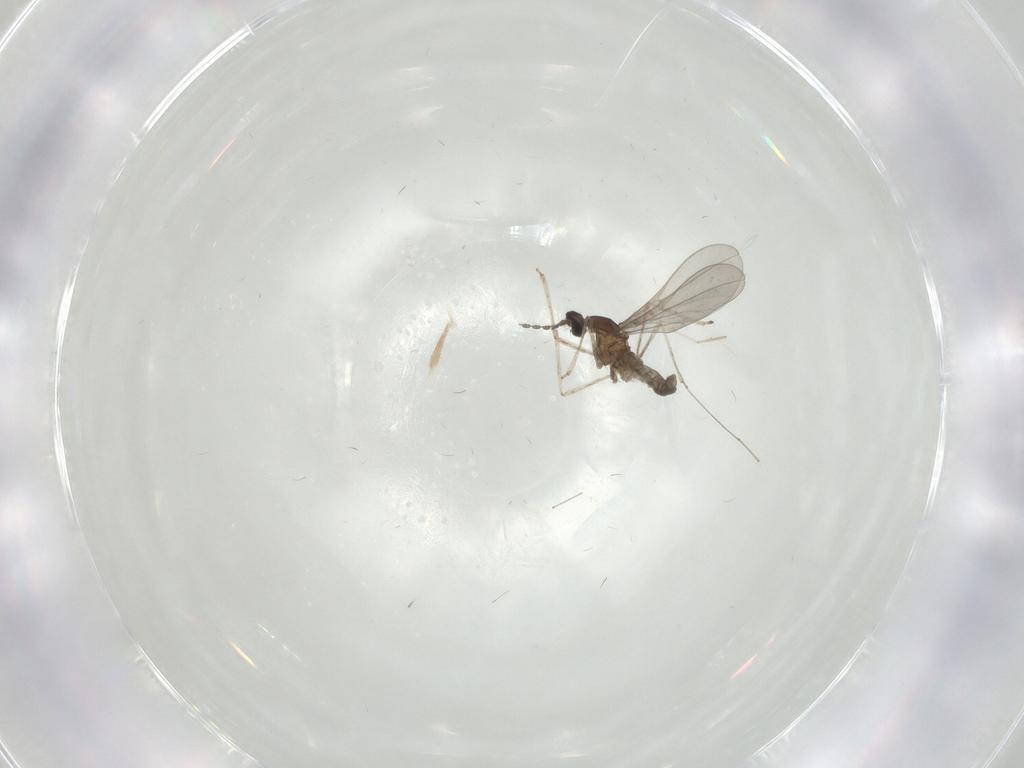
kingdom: Animalia
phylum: Arthropoda
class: Insecta
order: Diptera
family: Cecidomyiidae
